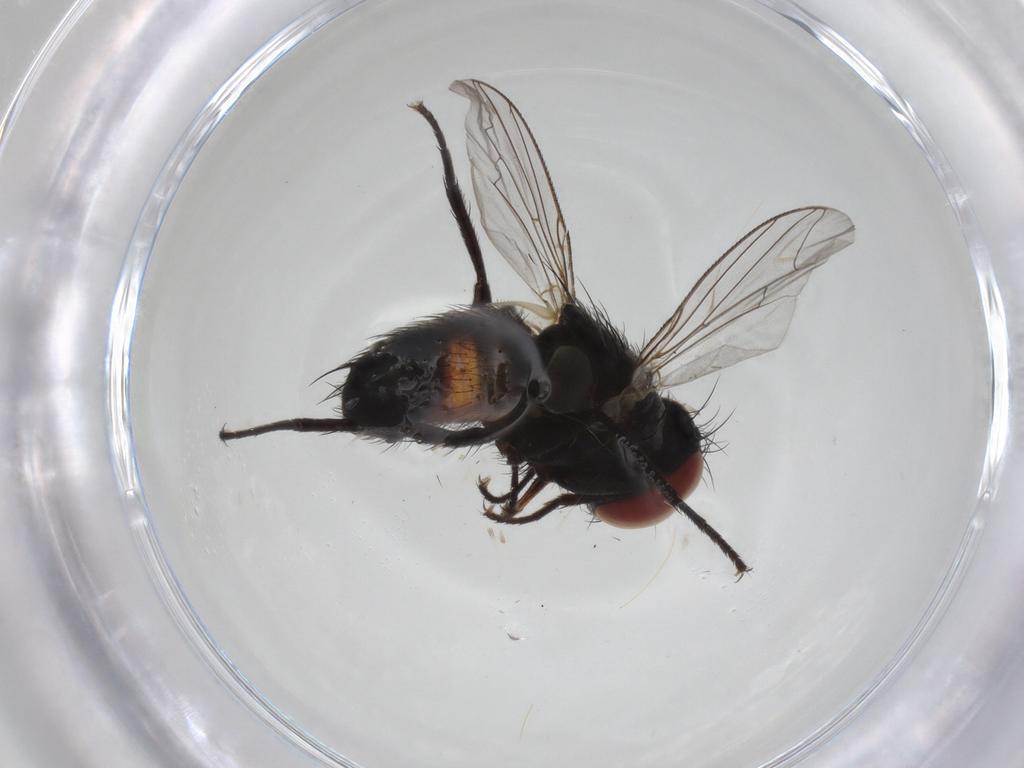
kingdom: Animalia
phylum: Arthropoda
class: Insecta
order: Diptera
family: Sarcophagidae
